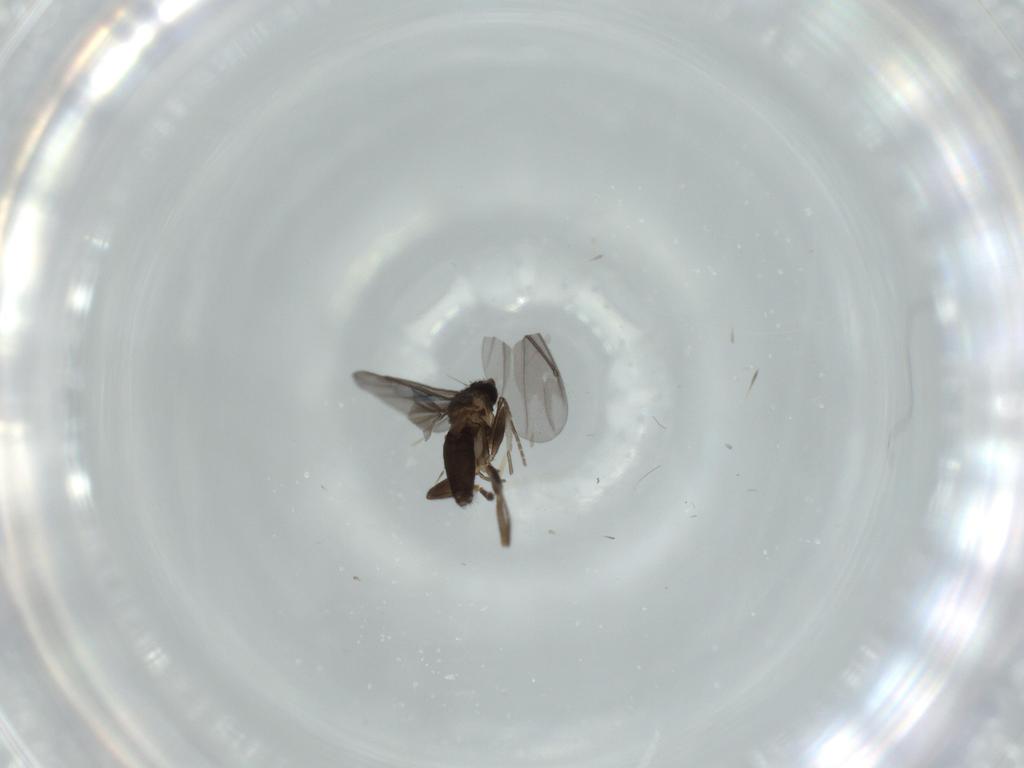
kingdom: Animalia
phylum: Arthropoda
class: Insecta
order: Diptera
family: Phoridae
